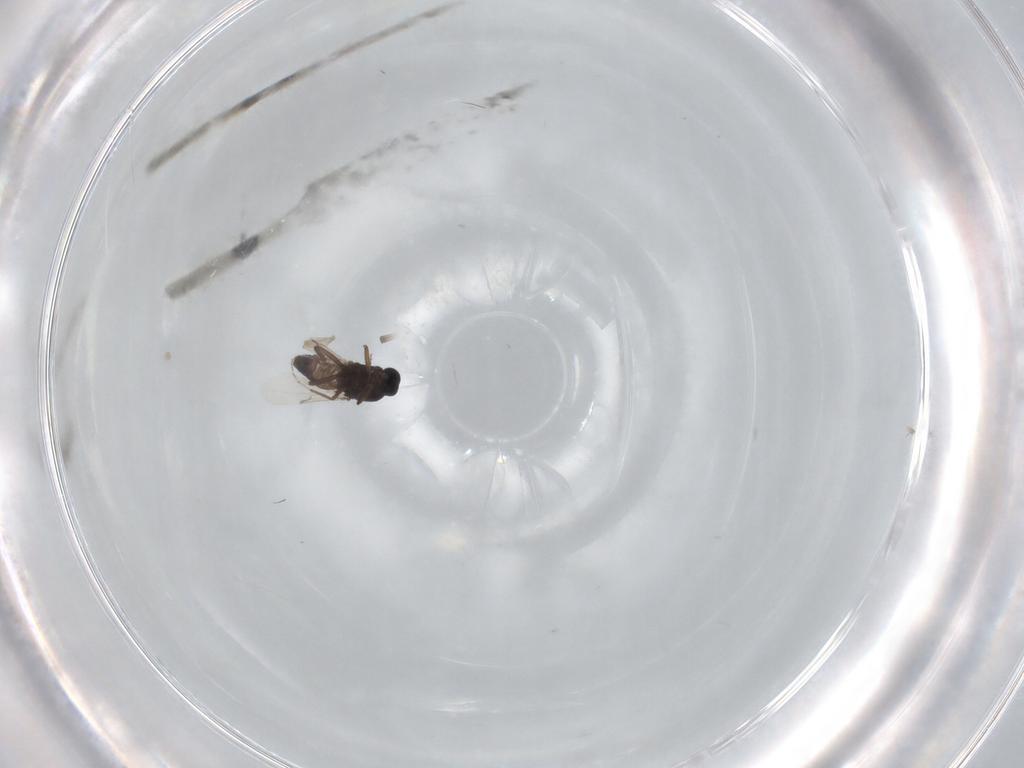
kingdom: Animalia
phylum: Arthropoda
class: Insecta
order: Diptera
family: Ceratopogonidae
